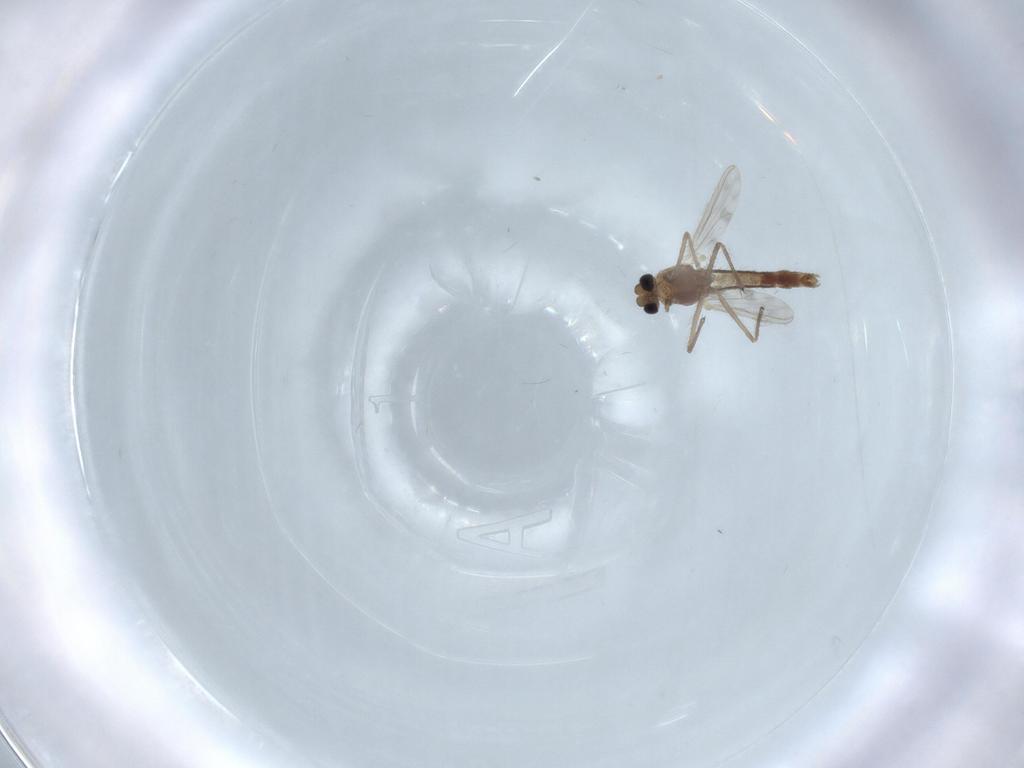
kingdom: Animalia
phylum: Arthropoda
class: Insecta
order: Diptera
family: Chironomidae
